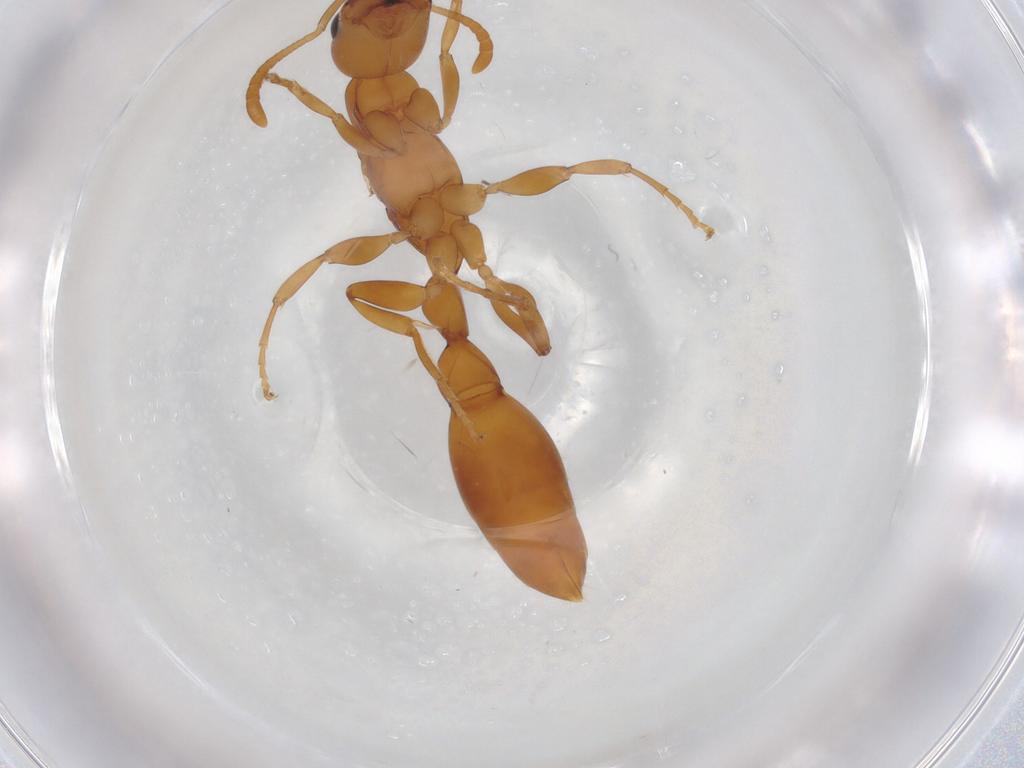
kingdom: Animalia
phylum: Arthropoda
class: Insecta
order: Hymenoptera
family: Formicidae
